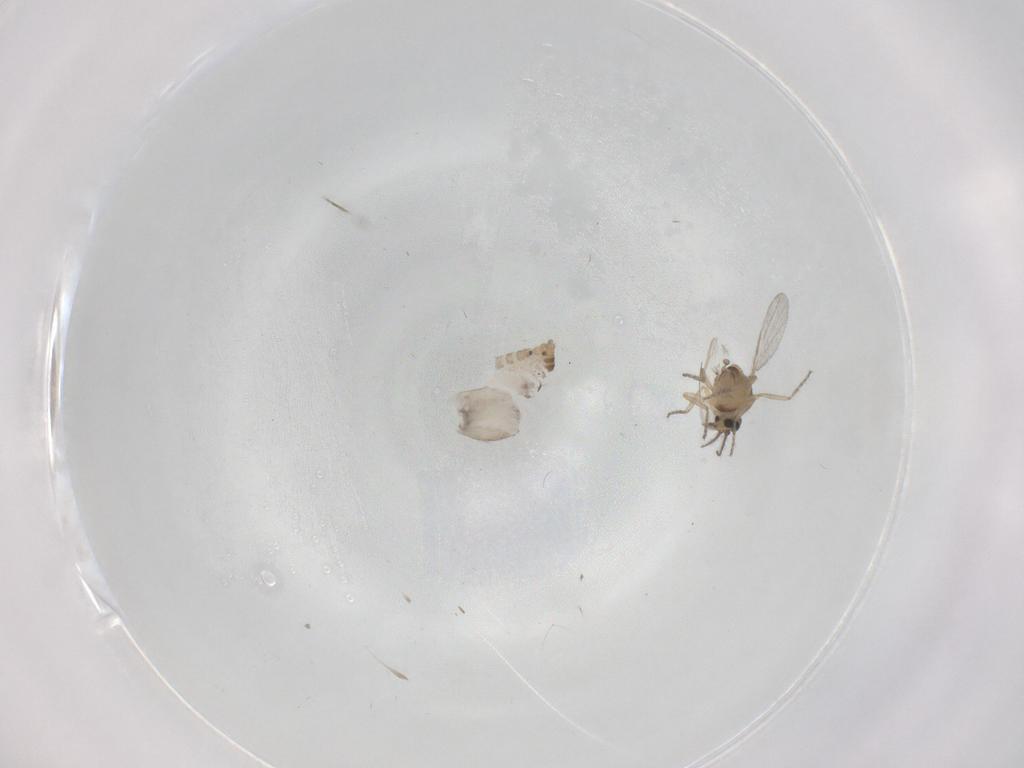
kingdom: Animalia
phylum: Arthropoda
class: Insecta
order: Diptera
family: Ceratopogonidae
